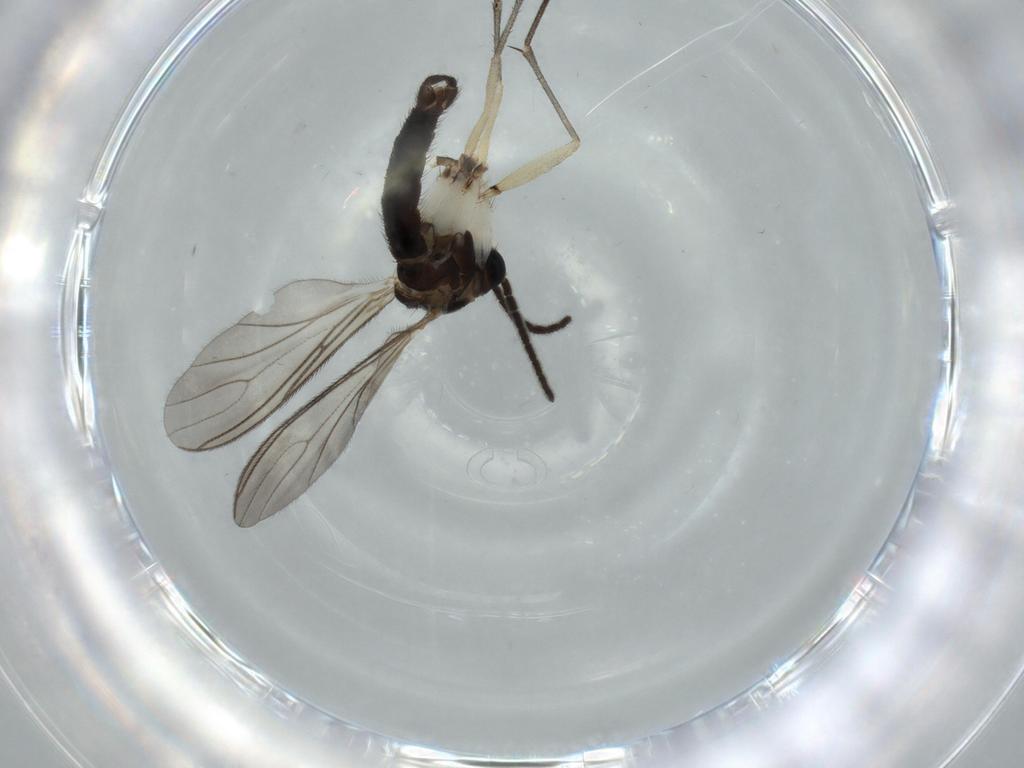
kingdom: Animalia
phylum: Arthropoda
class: Insecta
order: Diptera
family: Sciaridae
